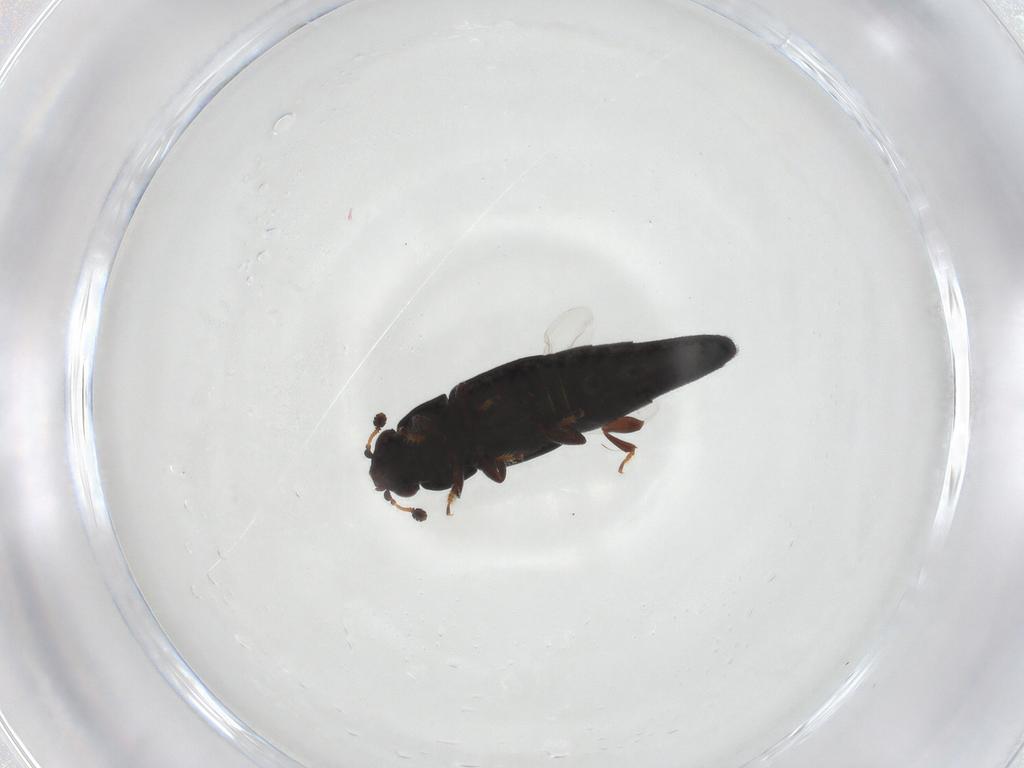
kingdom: Animalia
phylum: Arthropoda
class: Insecta
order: Coleoptera
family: Nitidulidae
